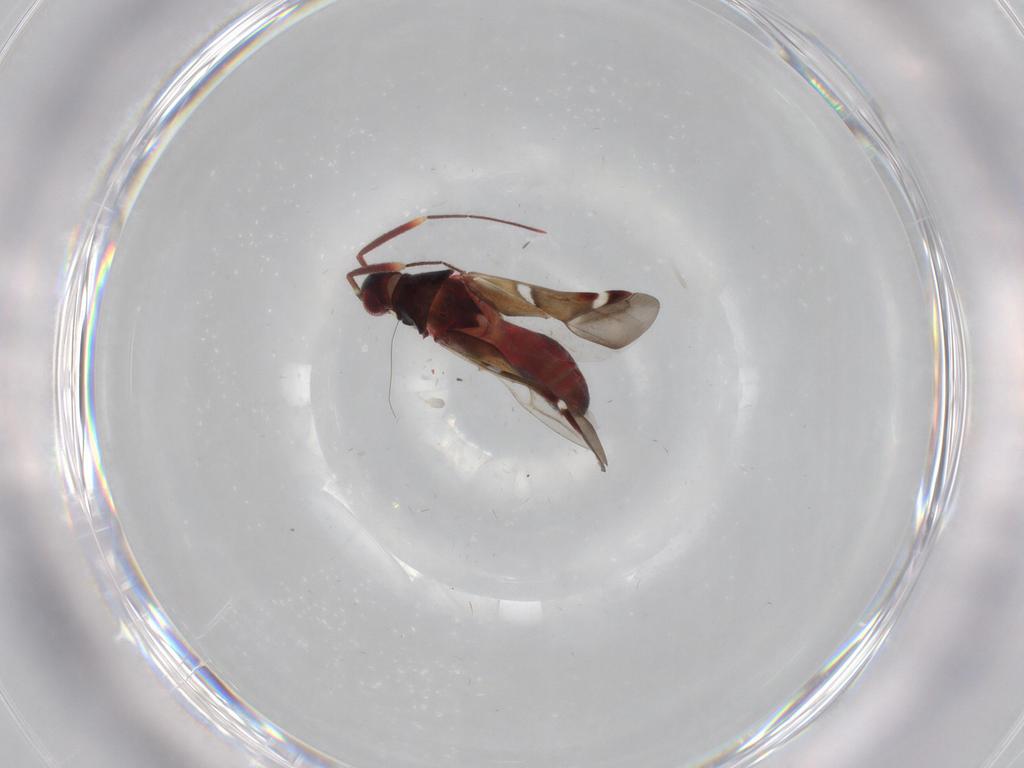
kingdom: Animalia
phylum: Arthropoda
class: Insecta
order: Hemiptera
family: Miridae
